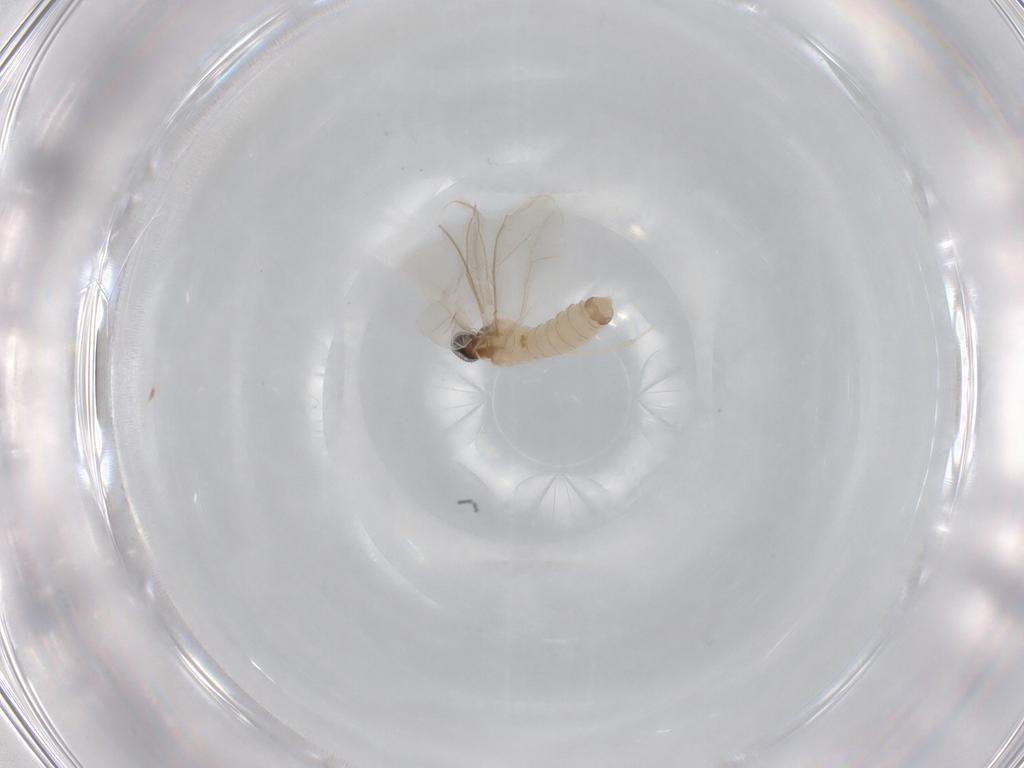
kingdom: Animalia
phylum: Arthropoda
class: Insecta
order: Diptera
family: Cecidomyiidae
